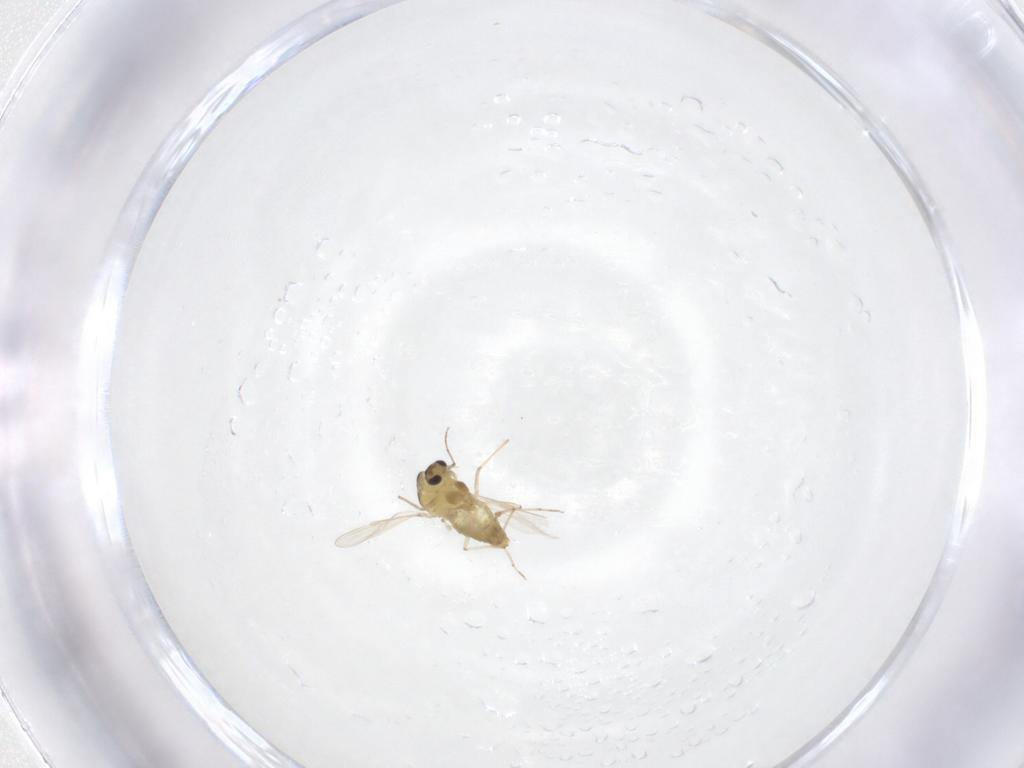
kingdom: Animalia
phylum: Arthropoda
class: Insecta
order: Diptera
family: Chironomidae
